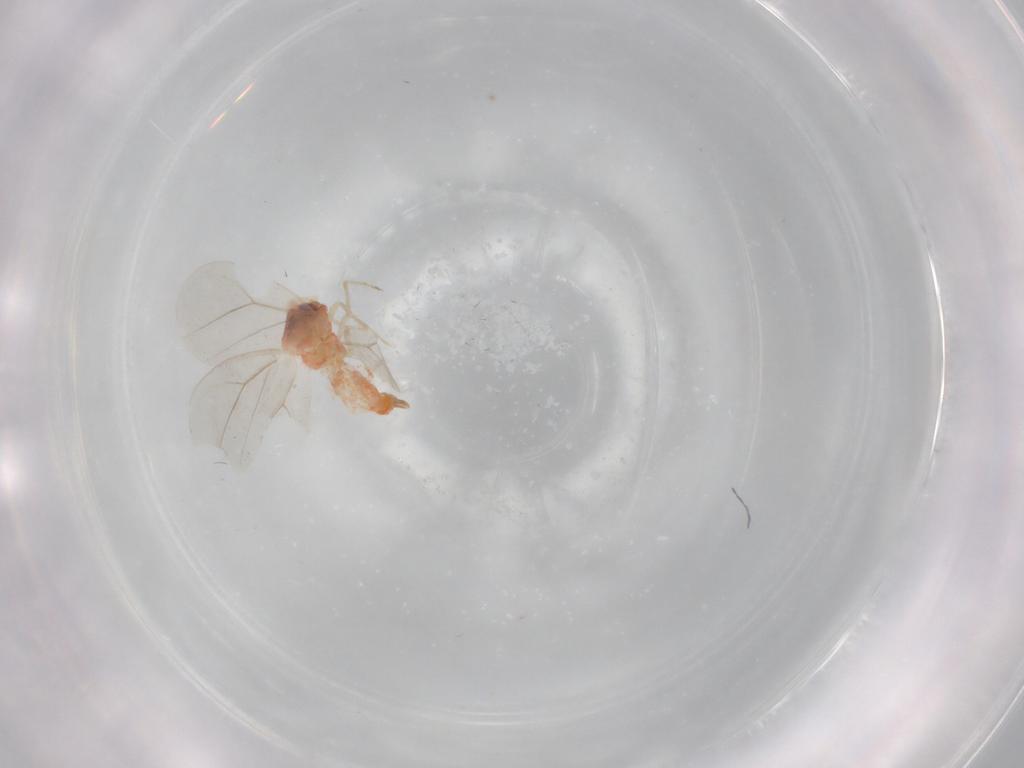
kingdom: Animalia
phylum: Arthropoda
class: Insecta
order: Hemiptera
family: Aleyrodidae
